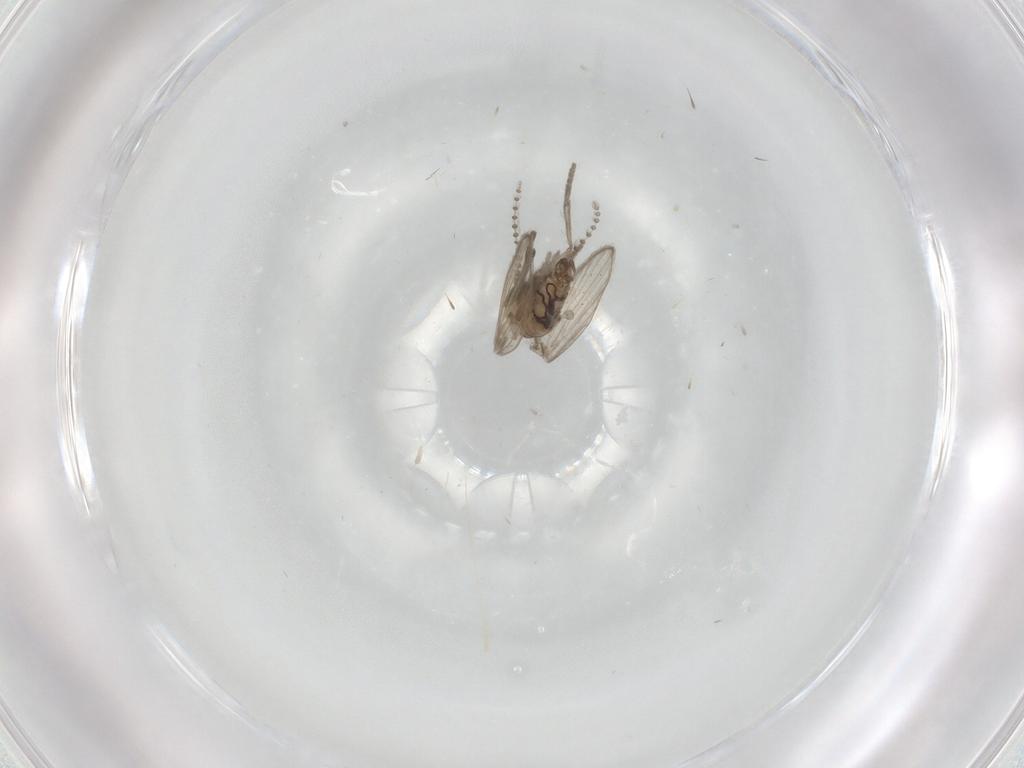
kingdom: Animalia
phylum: Arthropoda
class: Insecta
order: Diptera
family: Psychodidae
